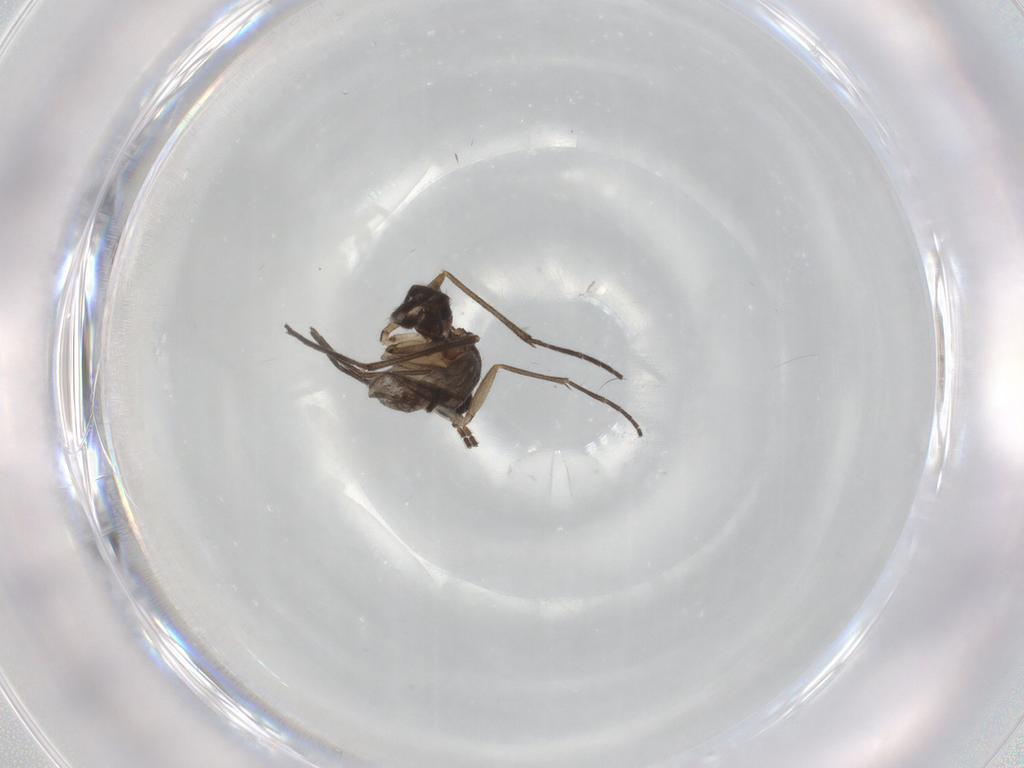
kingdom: Animalia
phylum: Arthropoda
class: Insecta
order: Diptera
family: Sciaridae
